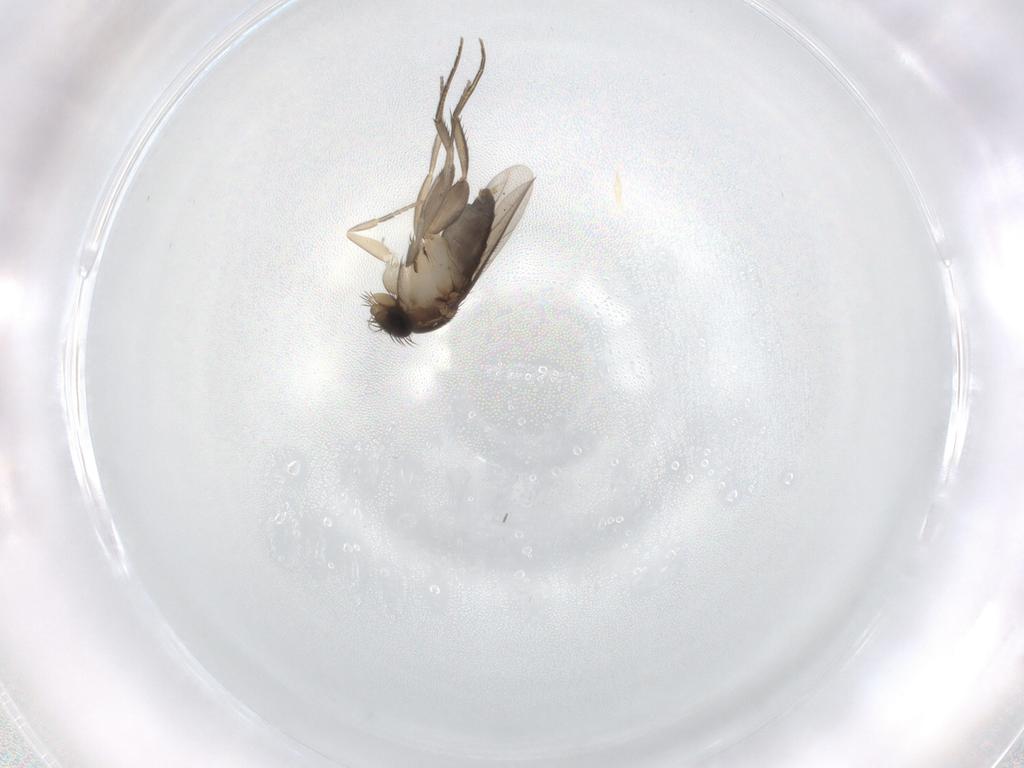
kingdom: Animalia
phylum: Arthropoda
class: Insecta
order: Diptera
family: Phoridae
